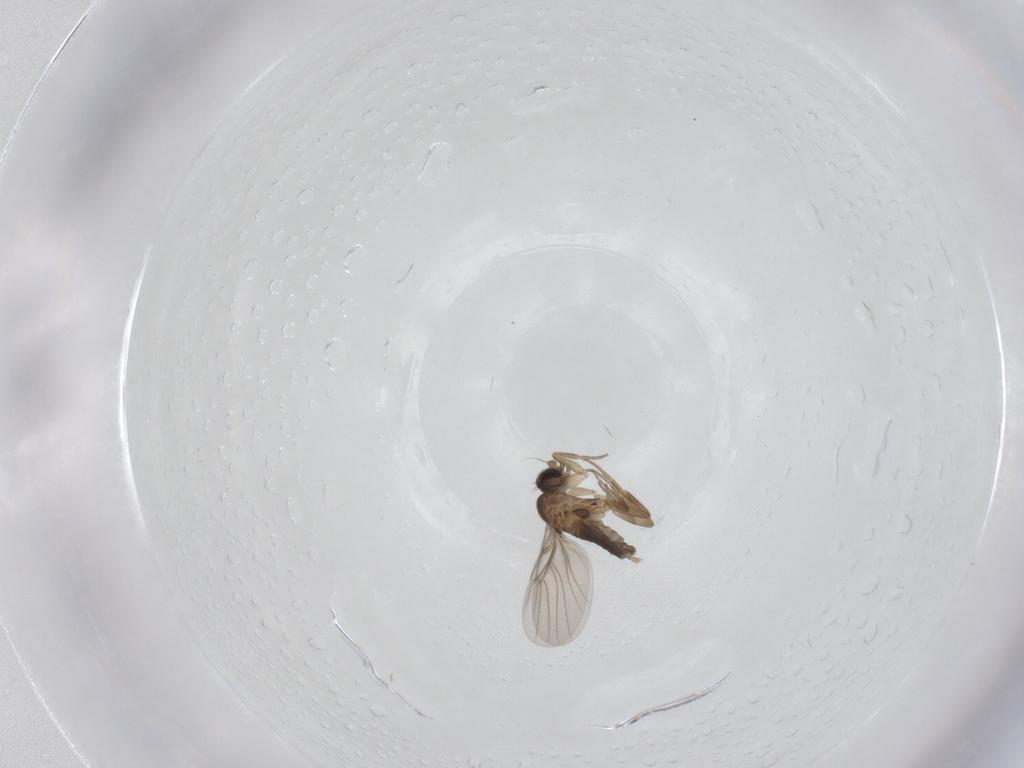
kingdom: Animalia
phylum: Arthropoda
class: Insecta
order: Diptera
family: Phoridae
